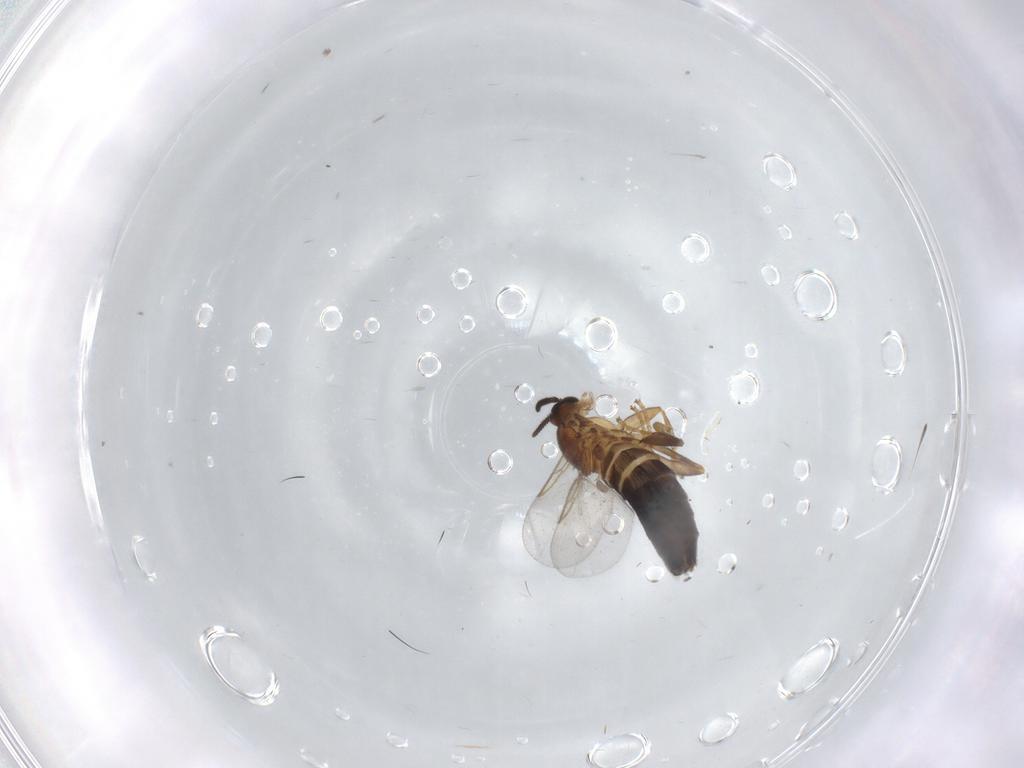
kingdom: Animalia
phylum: Arthropoda
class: Insecta
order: Diptera
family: Scatopsidae
